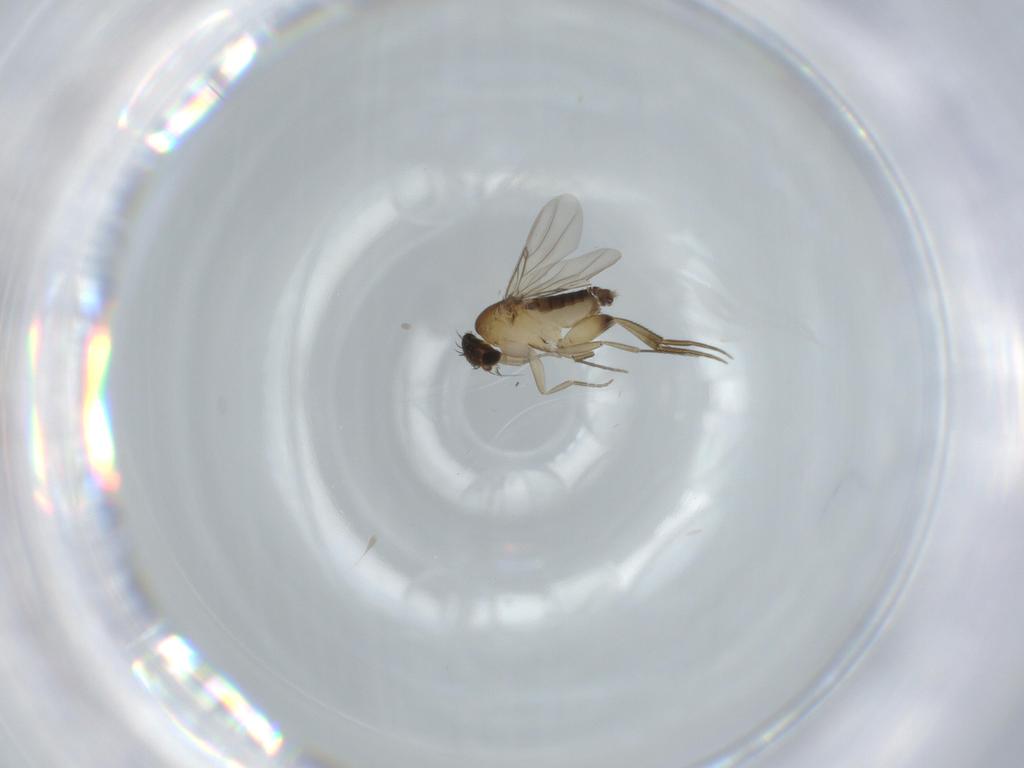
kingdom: Animalia
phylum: Arthropoda
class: Insecta
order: Diptera
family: Phoridae
